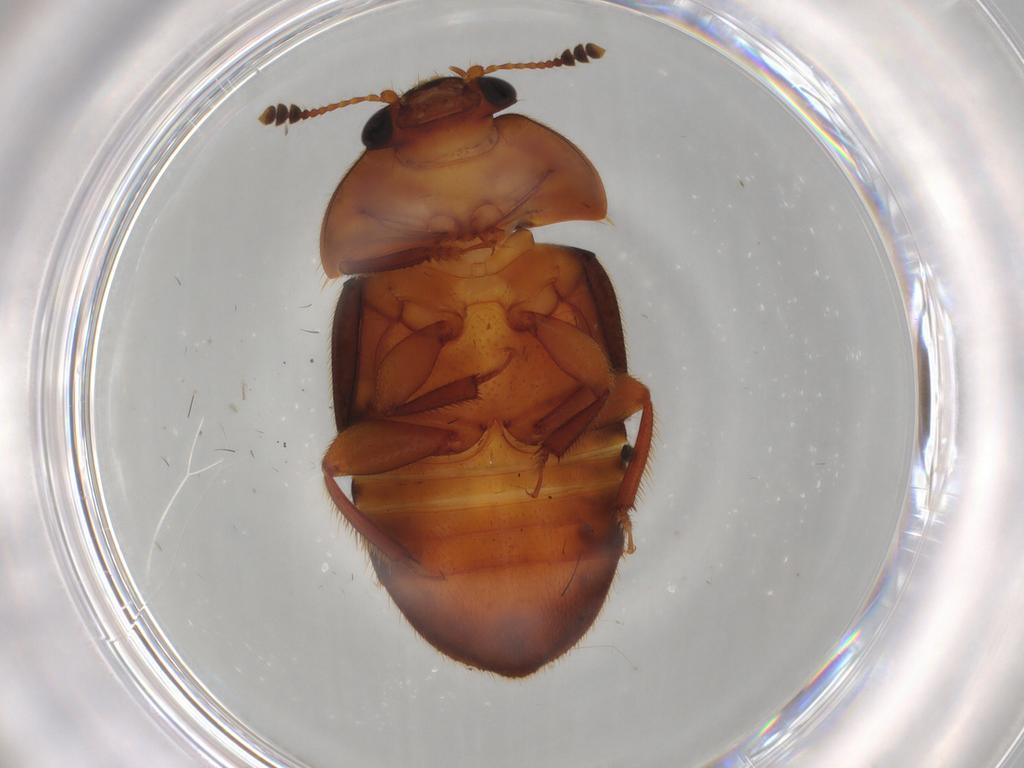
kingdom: Animalia
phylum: Arthropoda
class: Insecta
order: Coleoptera
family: Nitidulidae
